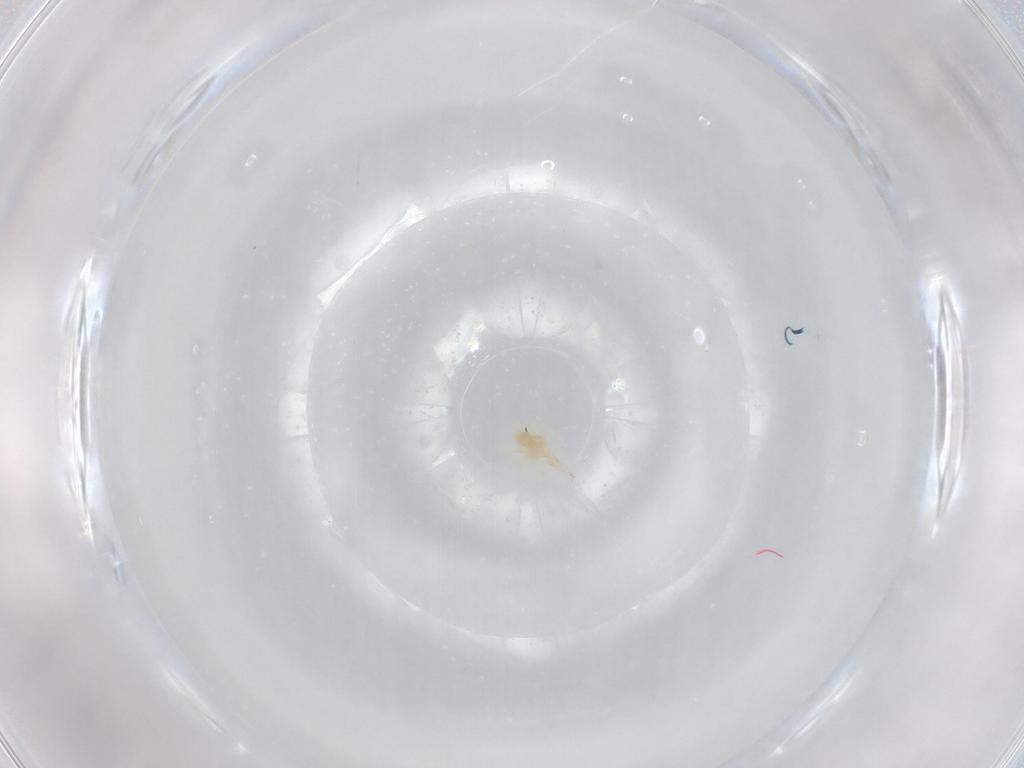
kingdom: Animalia
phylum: Arthropoda
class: Arachnida
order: Trombidiformes
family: Cunaxidae
